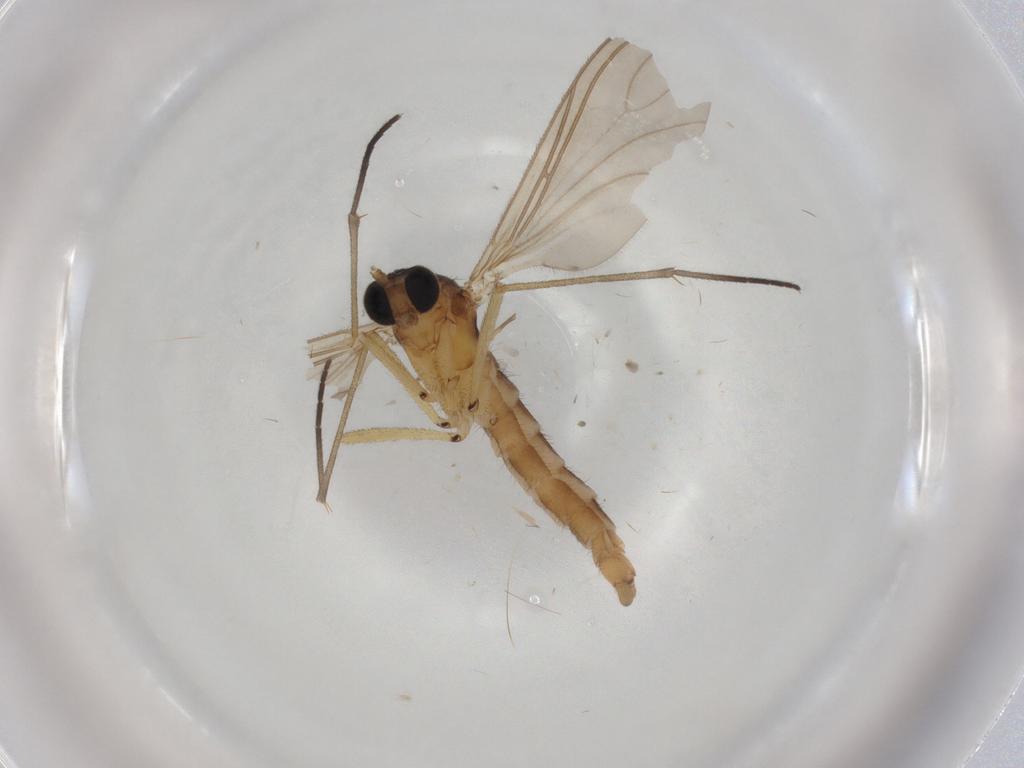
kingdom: Animalia
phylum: Arthropoda
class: Insecta
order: Diptera
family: Sciaridae
